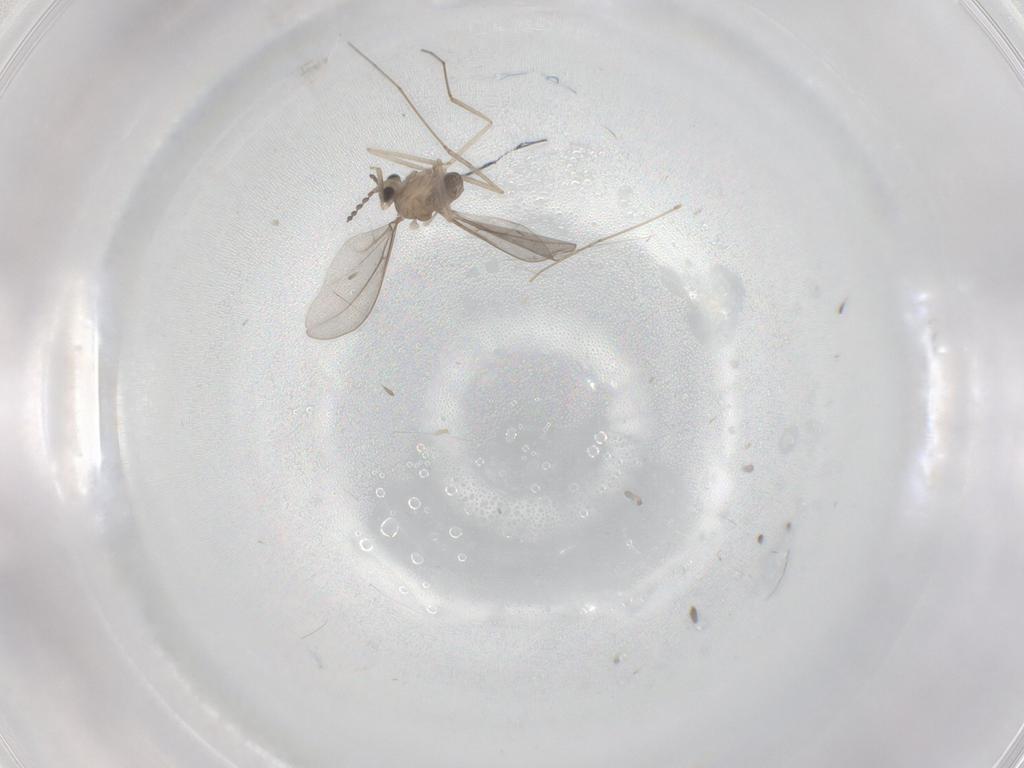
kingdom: Animalia
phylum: Arthropoda
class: Insecta
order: Diptera
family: Cecidomyiidae
